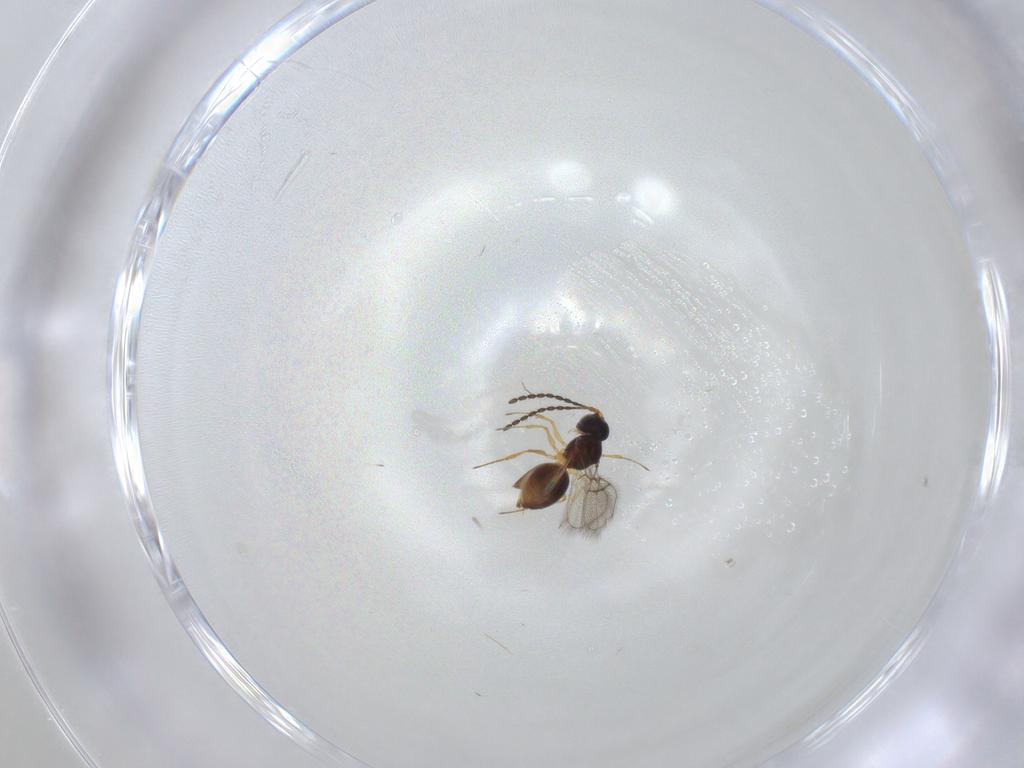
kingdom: Animalia
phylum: Arthropoda
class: Insecta
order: Hymenoptera
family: Figitidae
